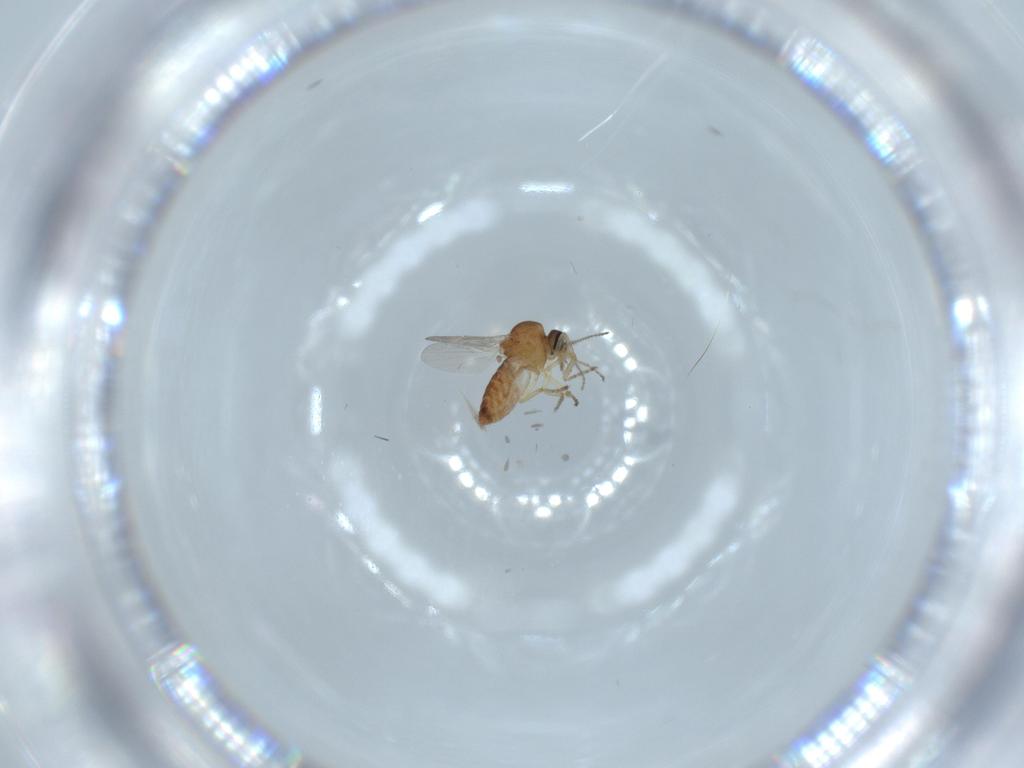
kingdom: Animalia
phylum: Arthropoda
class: Insecta
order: Diptera
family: Ceratopogonidae
